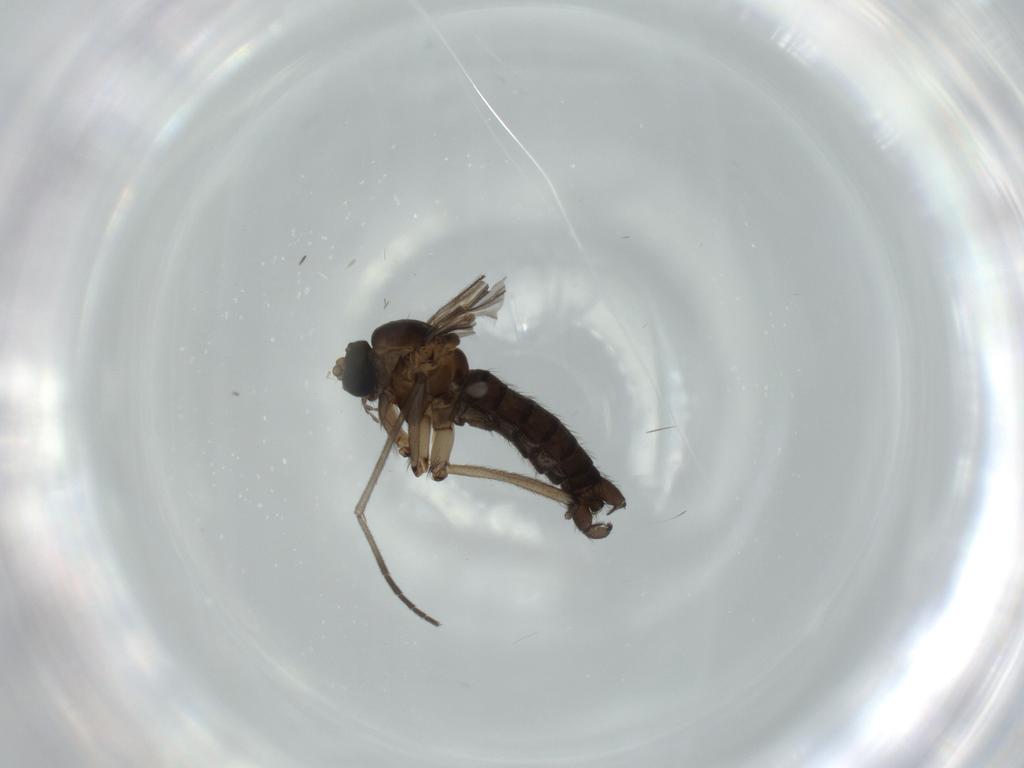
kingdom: Animalia
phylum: Arthropoda
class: Insecta
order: Diptera
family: Sciaridae
